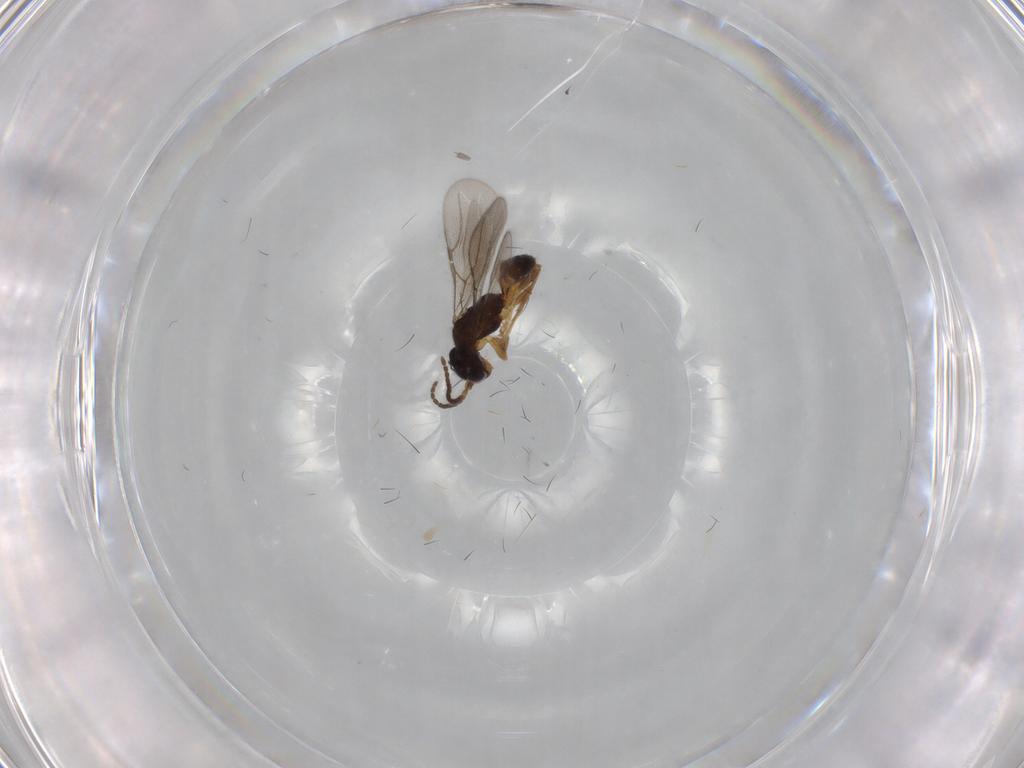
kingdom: Animalia
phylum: Arthropoda
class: Insecta
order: Hymenoptera
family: Bethylidae
